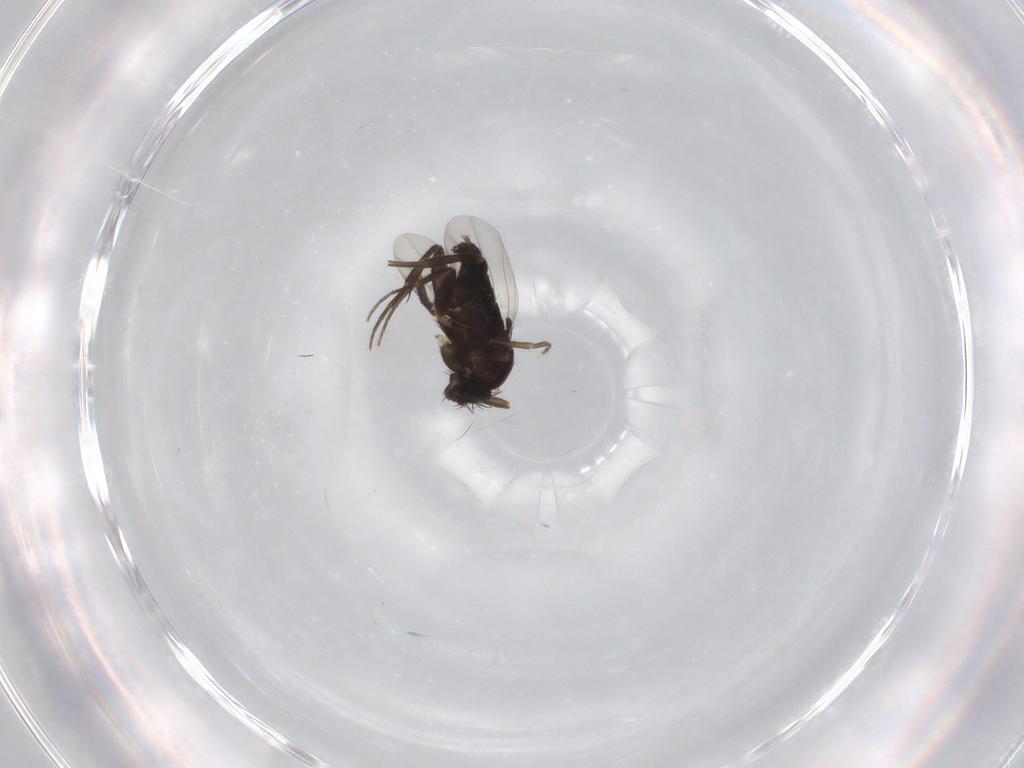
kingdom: Animalia
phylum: Arthropoda
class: Insecta
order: Diptera
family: Phoridae
